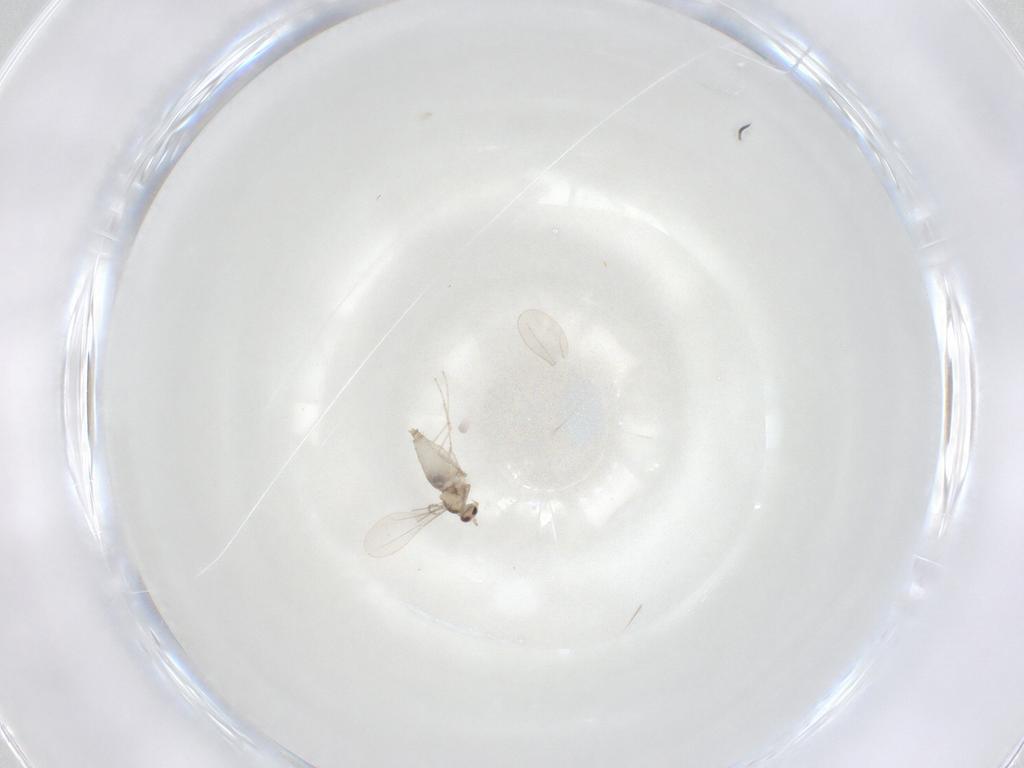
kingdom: Animalia
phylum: Arthropoda
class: Insecta
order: Diptera
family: Cecidomyiidae
